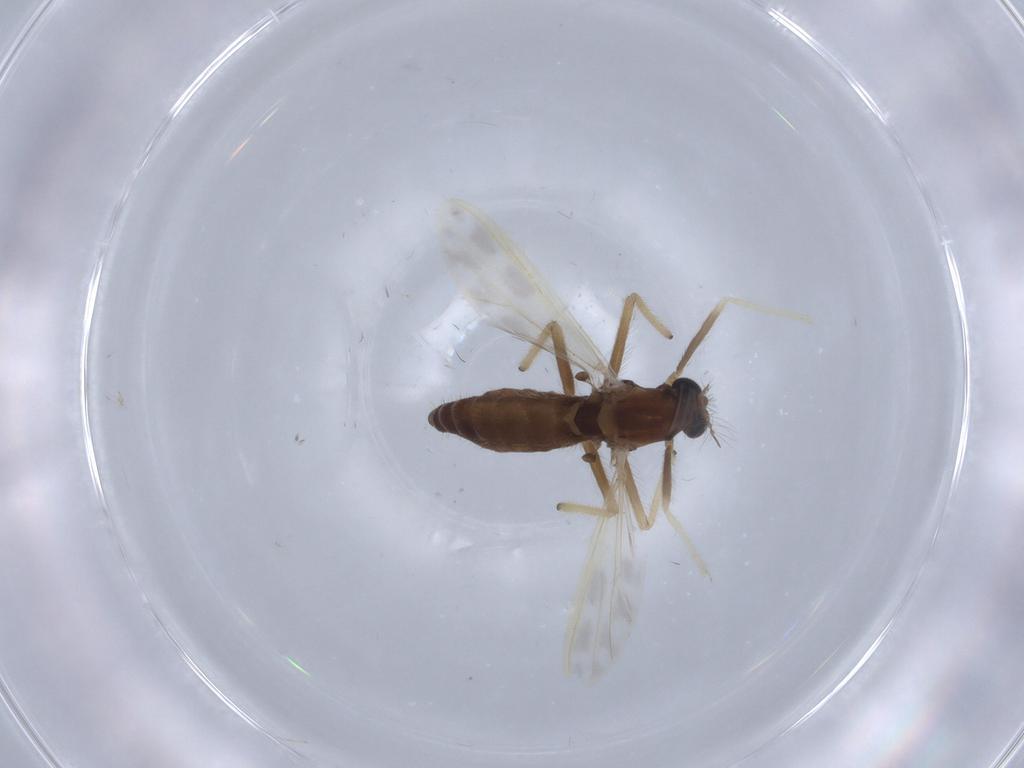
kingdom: Animalia
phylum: Arthropoda
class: Insecta
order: Diptera
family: Chironomidae
